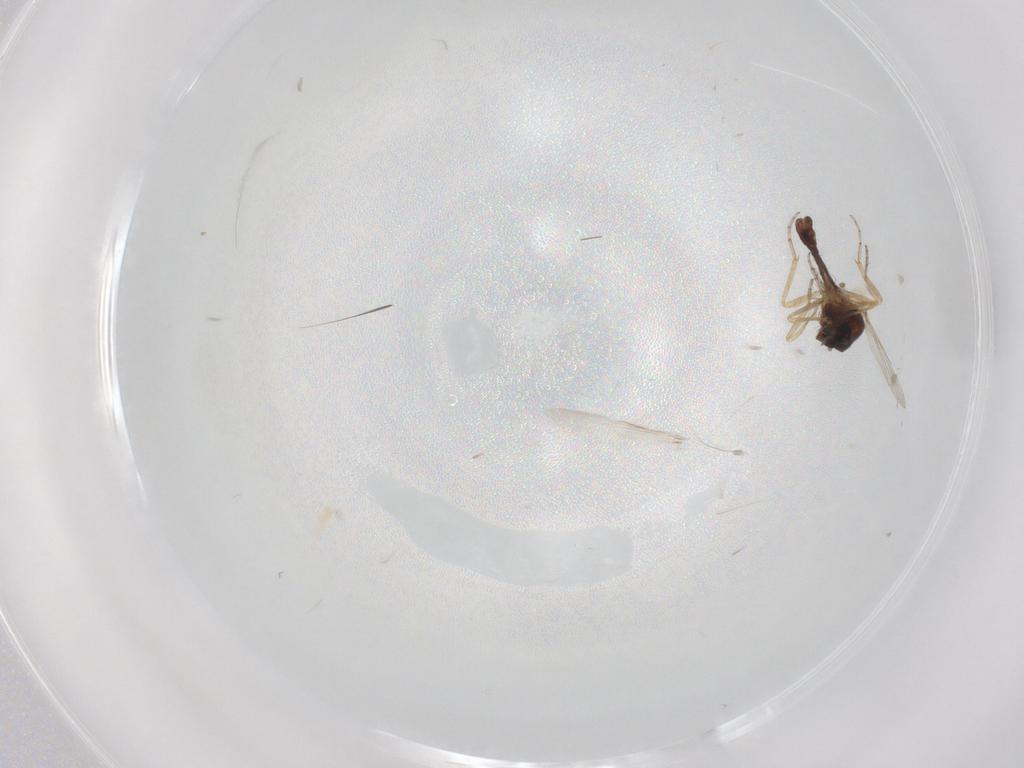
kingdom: Animalia
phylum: Arthropoda
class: Insecta
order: Diptera
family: Ceratopogonidae
